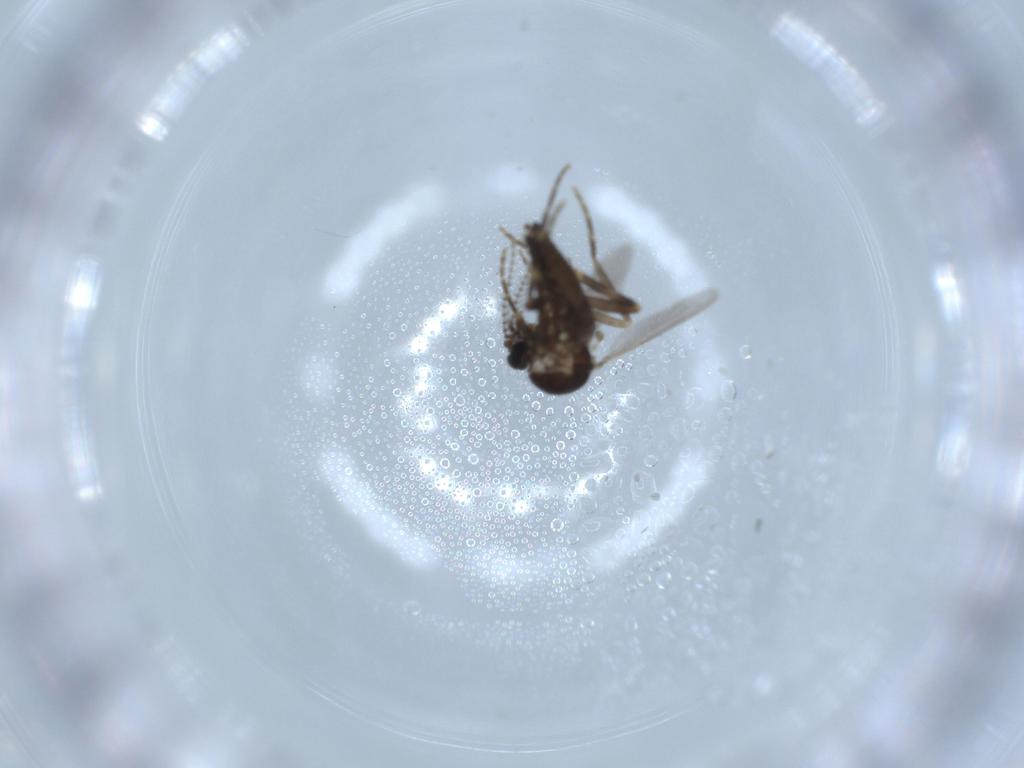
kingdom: Animalia
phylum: Arthropoda
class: Insecta
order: Diptera
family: Ceratopogonidae
